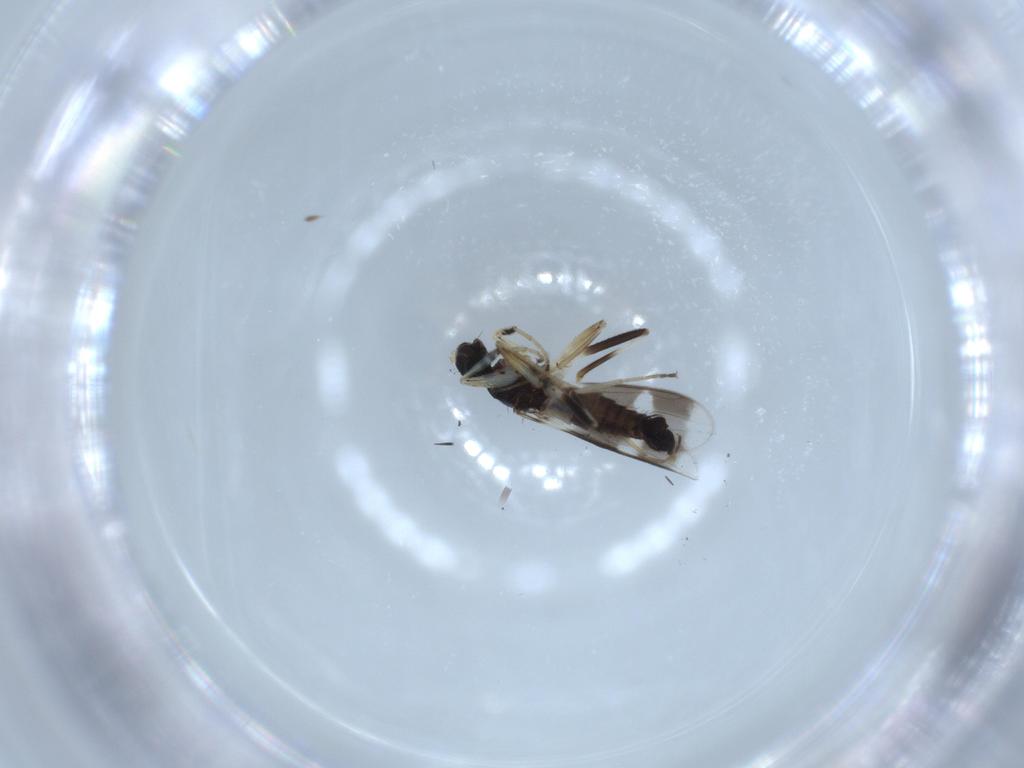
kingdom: Animalia
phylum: Arthropoda
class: Insecta
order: Diptera
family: Hybotidae
